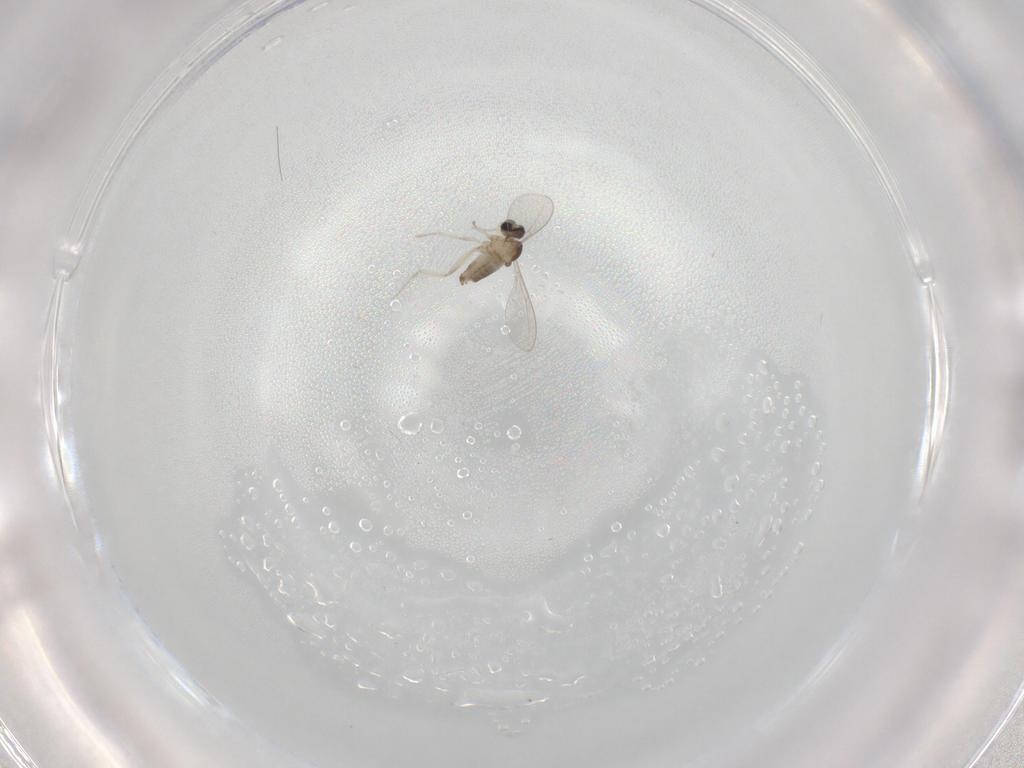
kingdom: Animalia
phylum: Arthropoda
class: Insecta
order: Diptera
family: Cecidomyiidae
